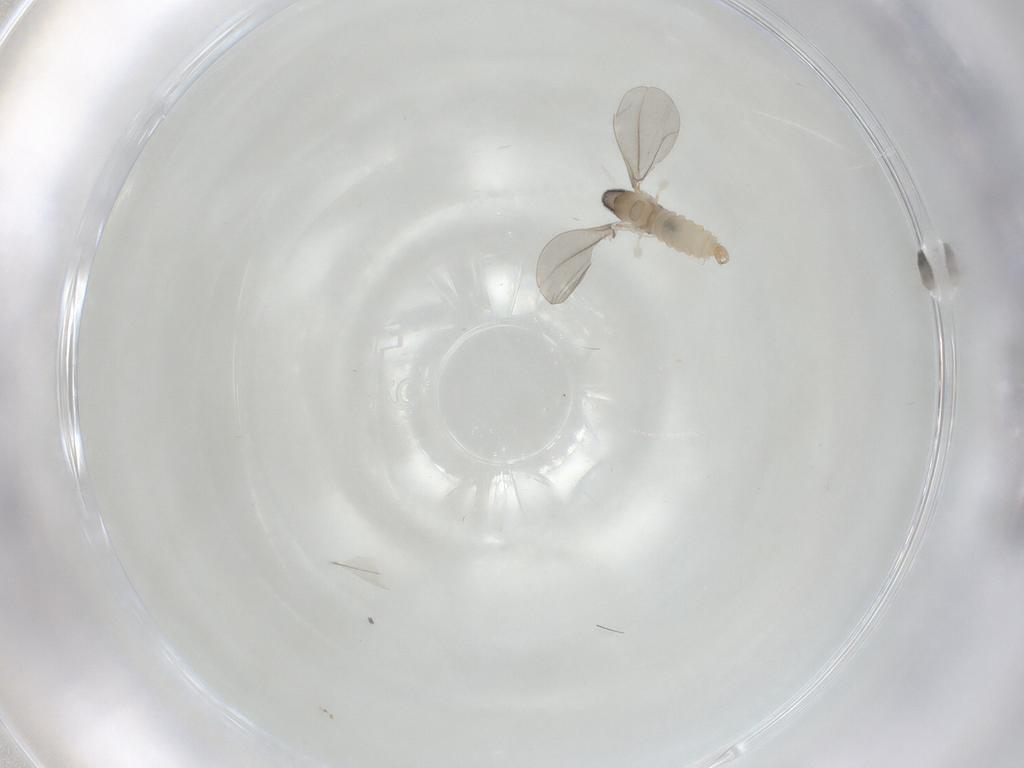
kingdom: Animalia
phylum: Arthropoda
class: Insecta
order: Diptera
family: Cecidomyiidae
